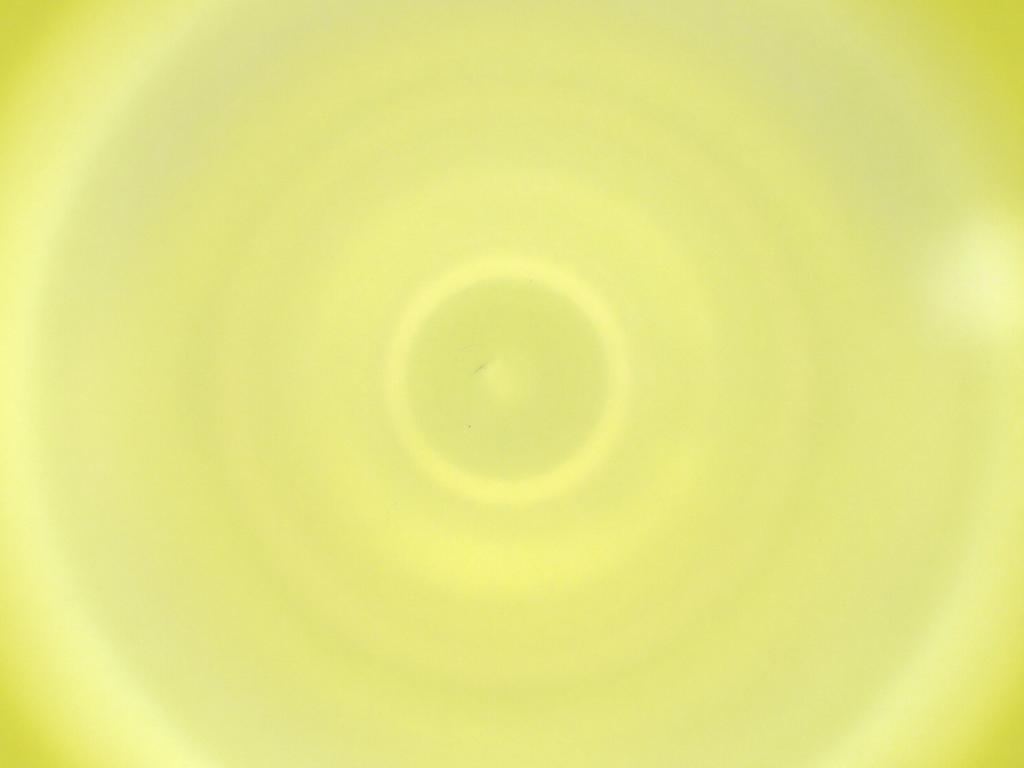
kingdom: Animalia
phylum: Arthropoda
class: Insecta
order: Diptera
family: Cecidomyiidae
